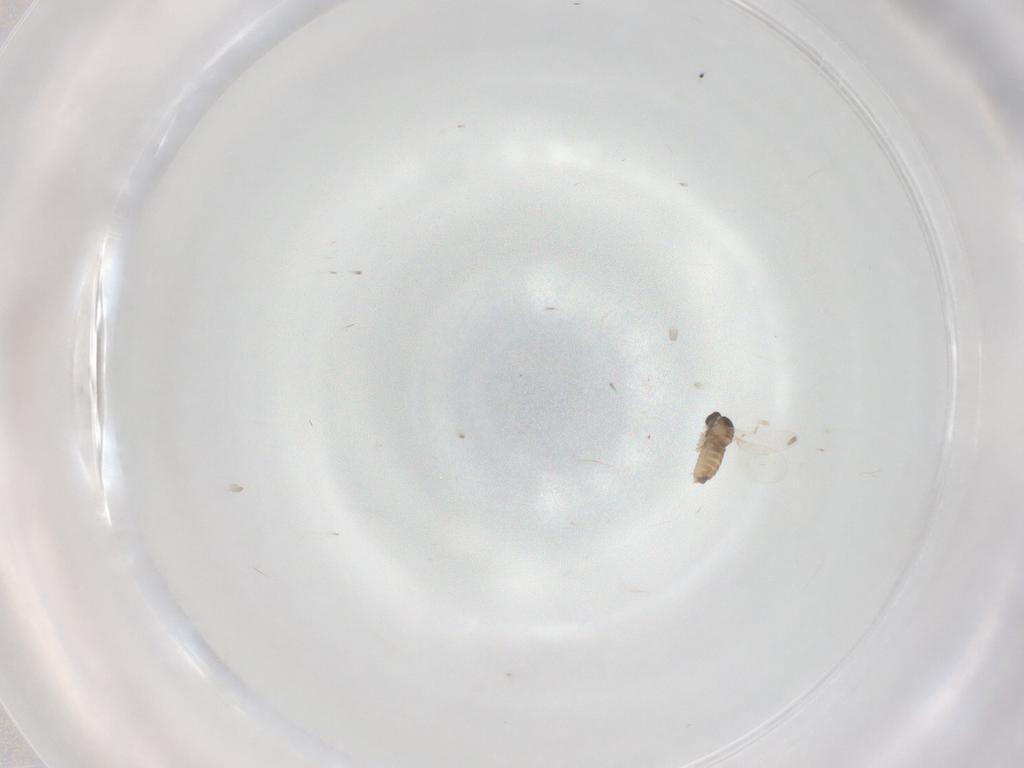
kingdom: Animalia
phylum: Arthropoda
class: Insecta
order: Diptera
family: Chironomidae
